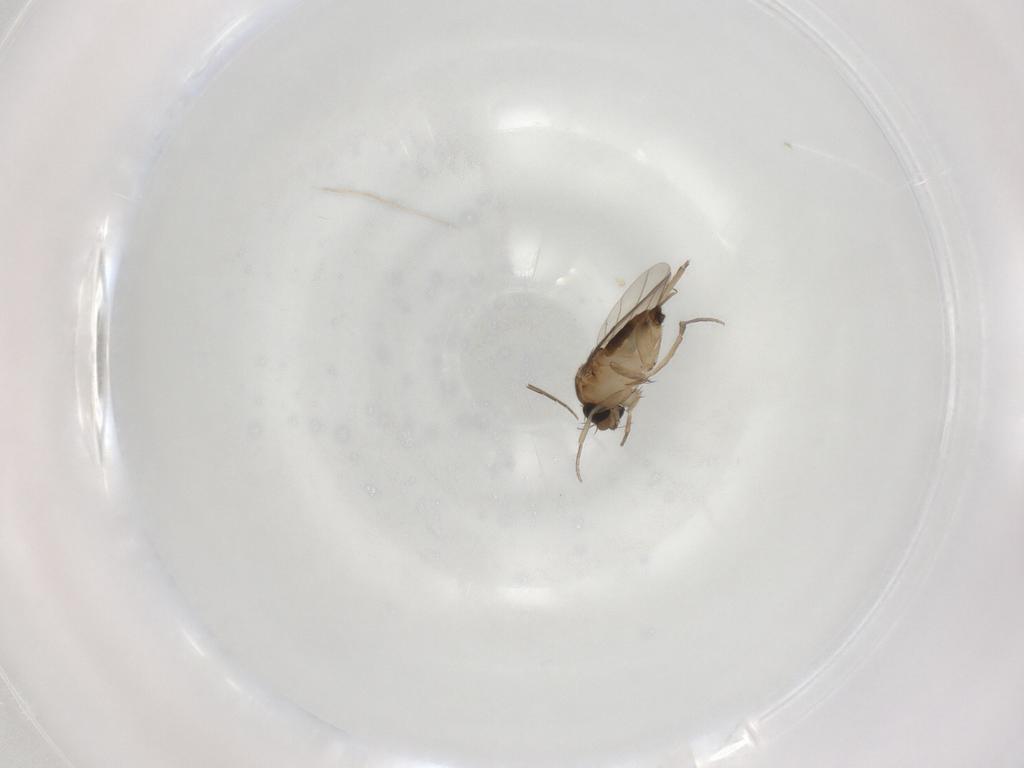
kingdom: Animalia
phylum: Arthropoda
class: Insecta
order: Diptera
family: Phoridae
